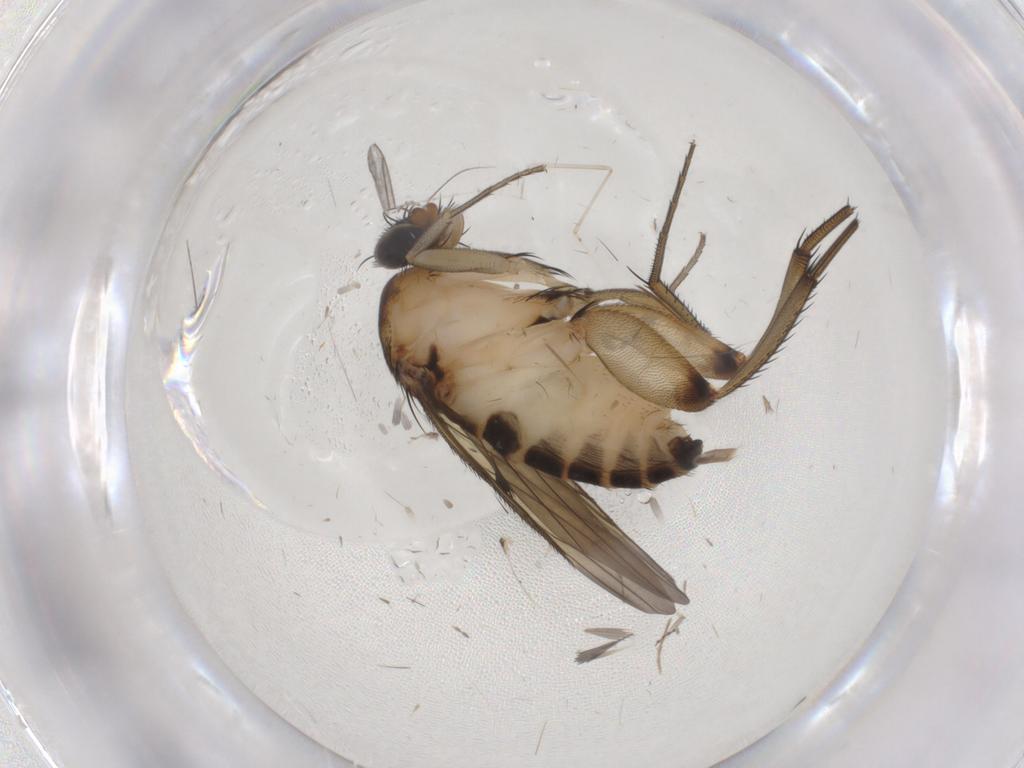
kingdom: Animalia
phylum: Arthropoda
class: Insecta
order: Diptera
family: Phoridae
